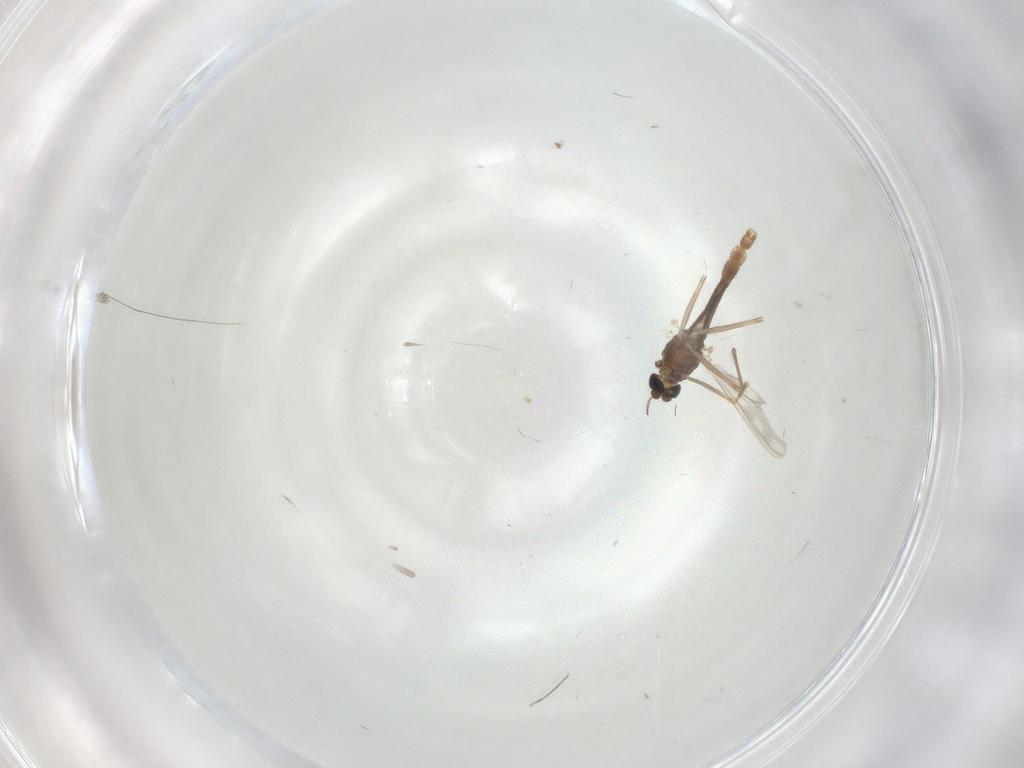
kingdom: Animalia
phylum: Arthropoda
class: Insecta
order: Diptera
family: Chironomidae
